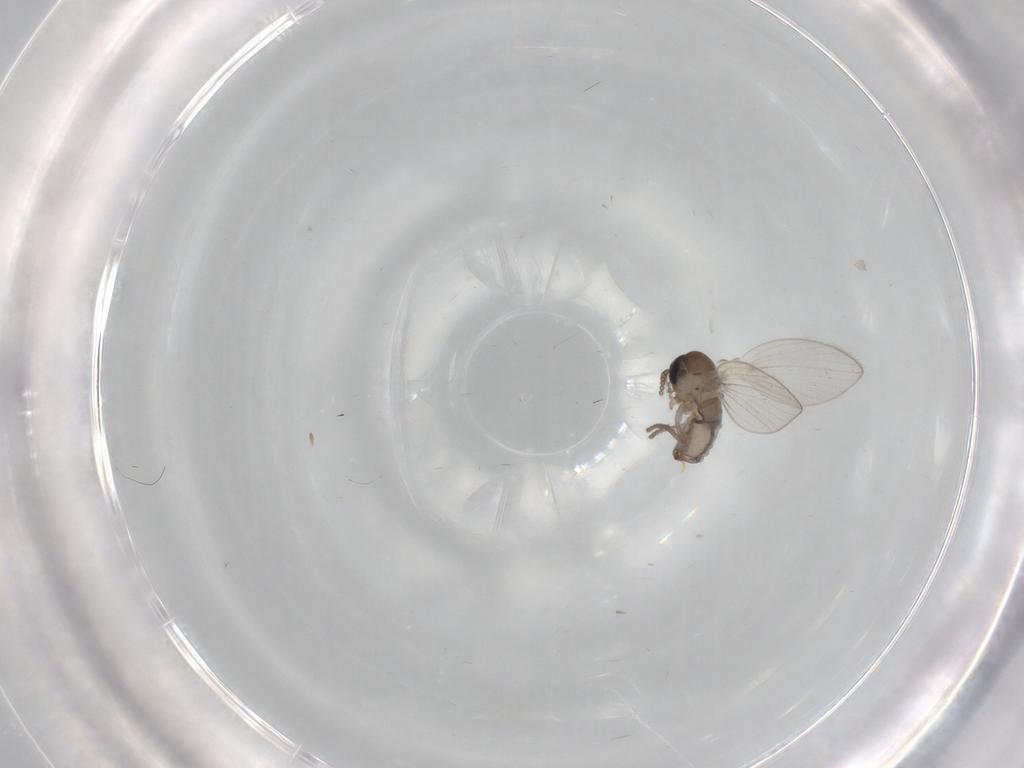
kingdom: Animalia
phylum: Arthropoda
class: Insecta
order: Diptera
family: Psychodidae
